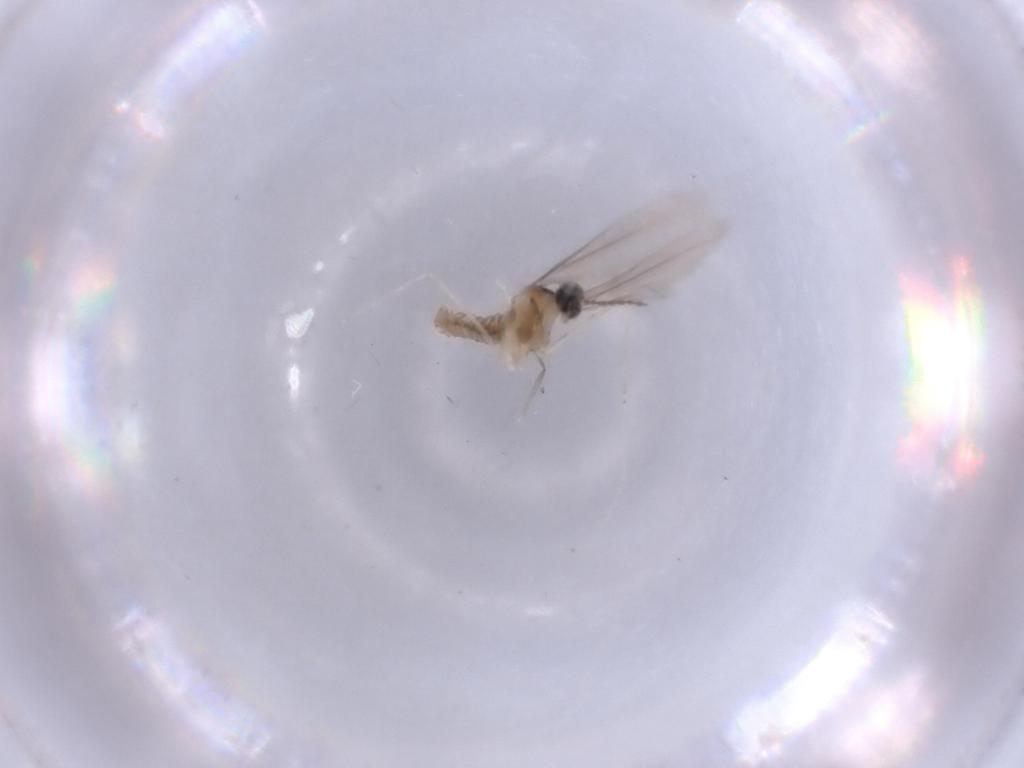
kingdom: Animalia
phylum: Arthropoda
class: Insecta
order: Diptera
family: Chironomidae
